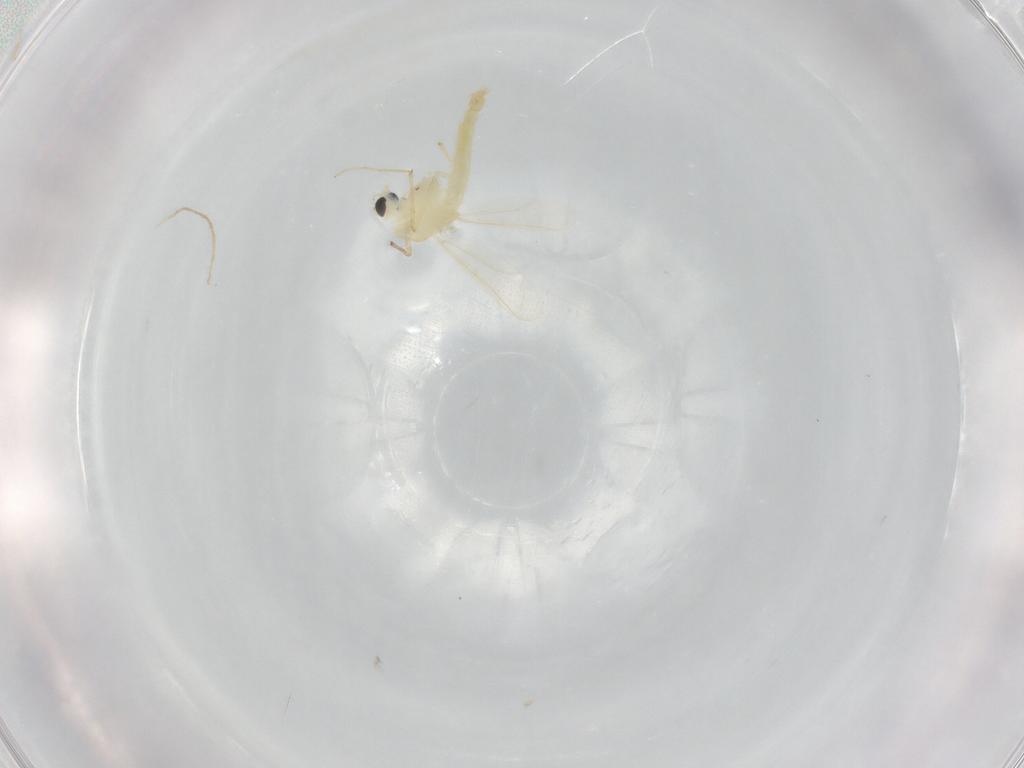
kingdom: Animalia
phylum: Arthropoda
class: Insecta
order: Diptera
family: Chironomidae
